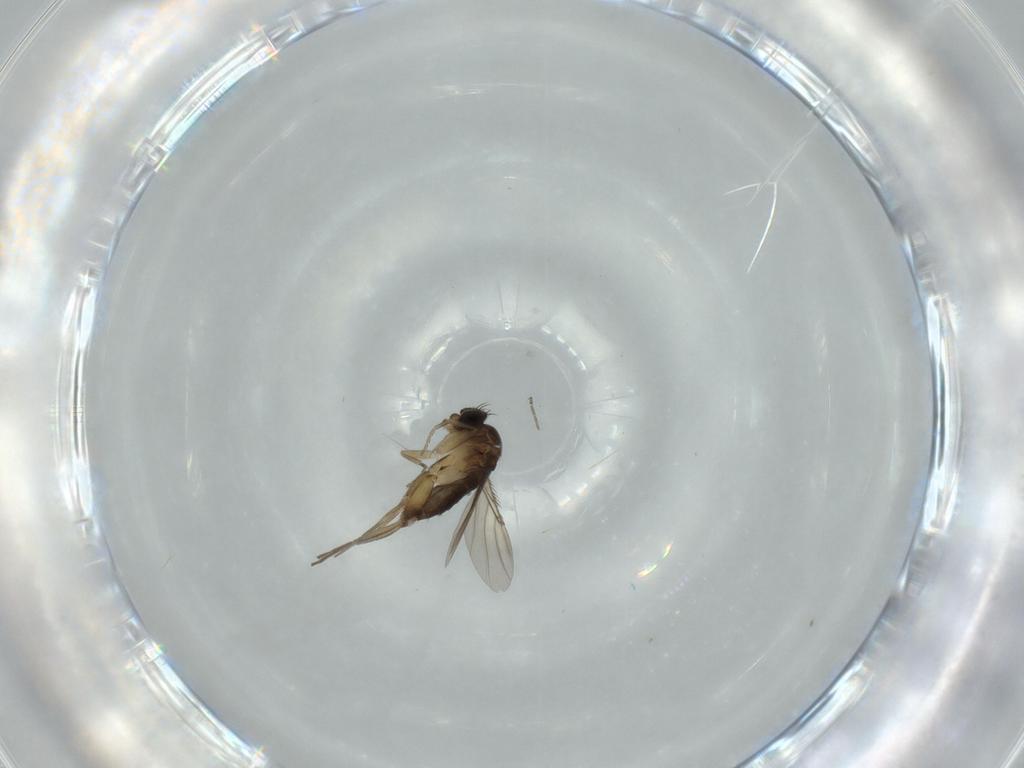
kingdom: Animalia
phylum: Arthropoda
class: Insecta
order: Diptera
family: Phoridae
